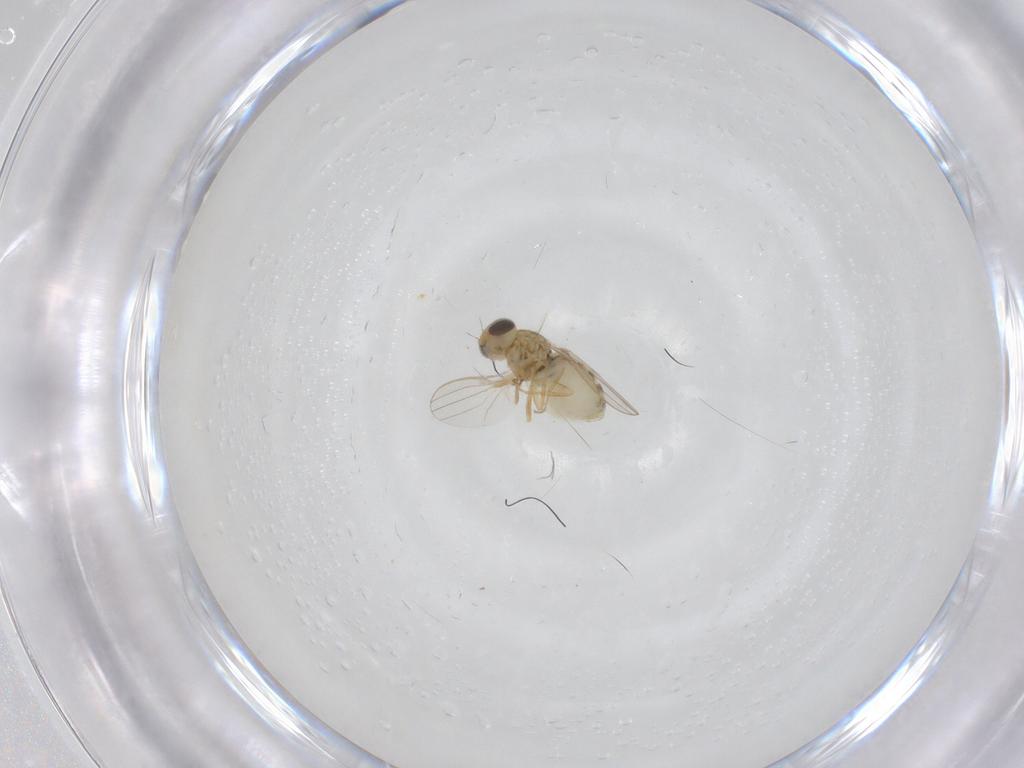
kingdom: Animalia
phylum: Arthropoda
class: Insecta
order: Diptera
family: Chyromyidae
